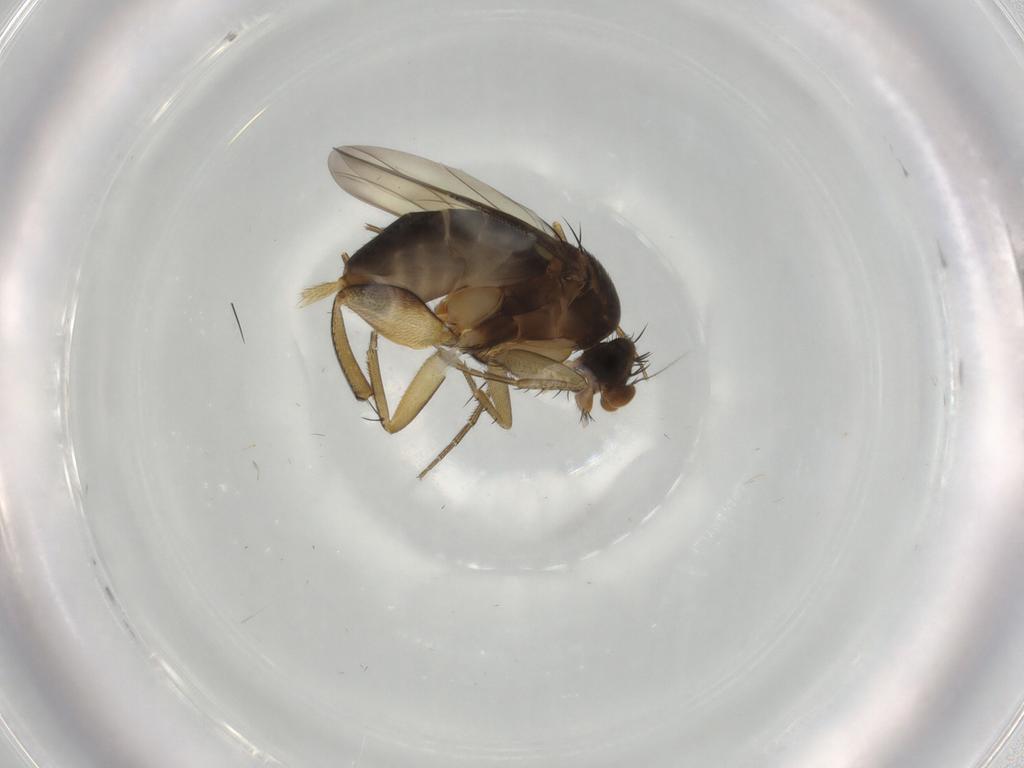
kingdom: Animalia
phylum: Arthropoda
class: Insecta
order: Diptera
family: Phoridae
